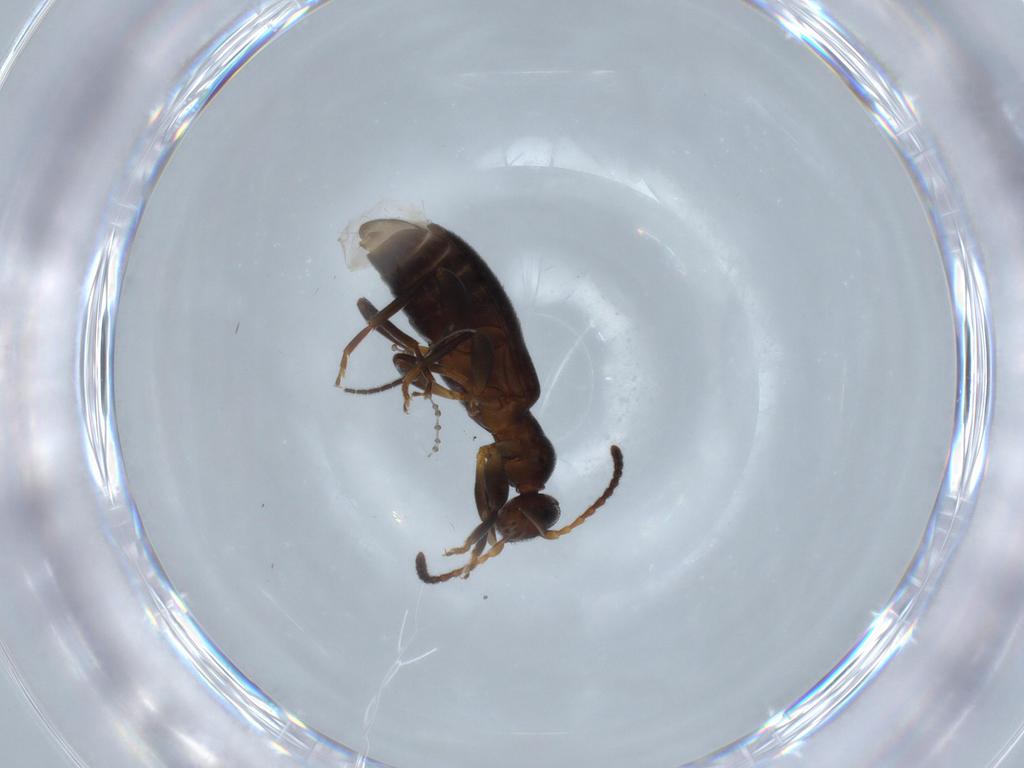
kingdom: Animalia
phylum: Arthropoda
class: Insecta
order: Coleoptera
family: Anthicidae
